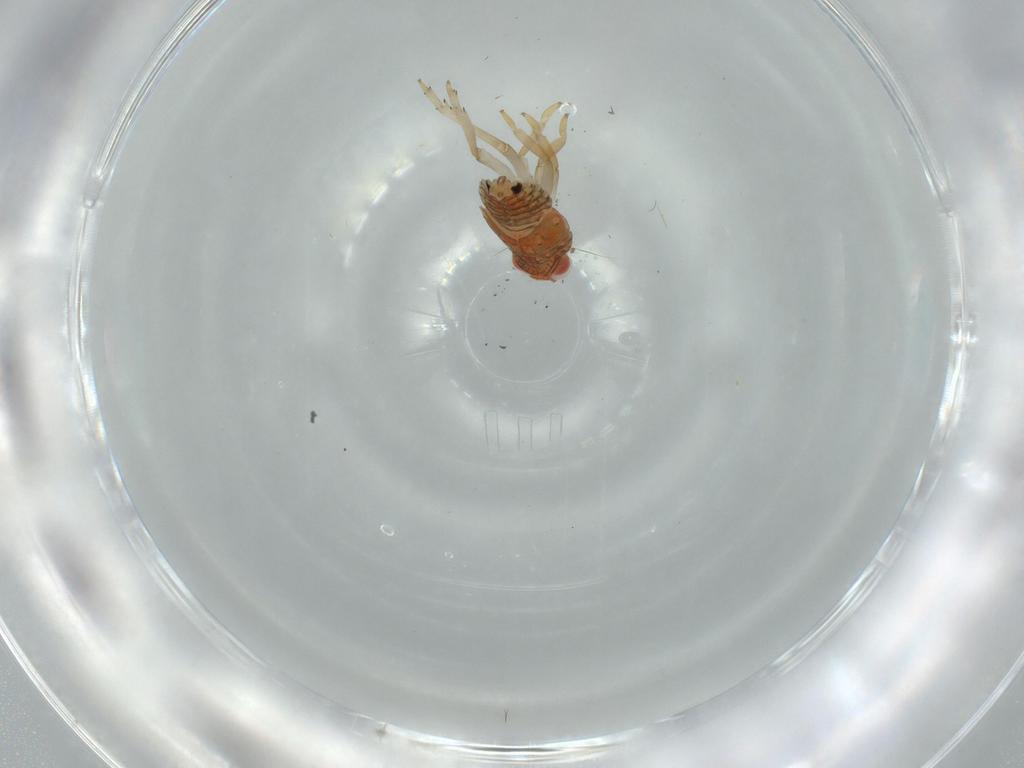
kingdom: Animalia
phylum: Arthropoda
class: Insecta
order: Hemiptera
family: Fulgoroidea_incertae_sedis
